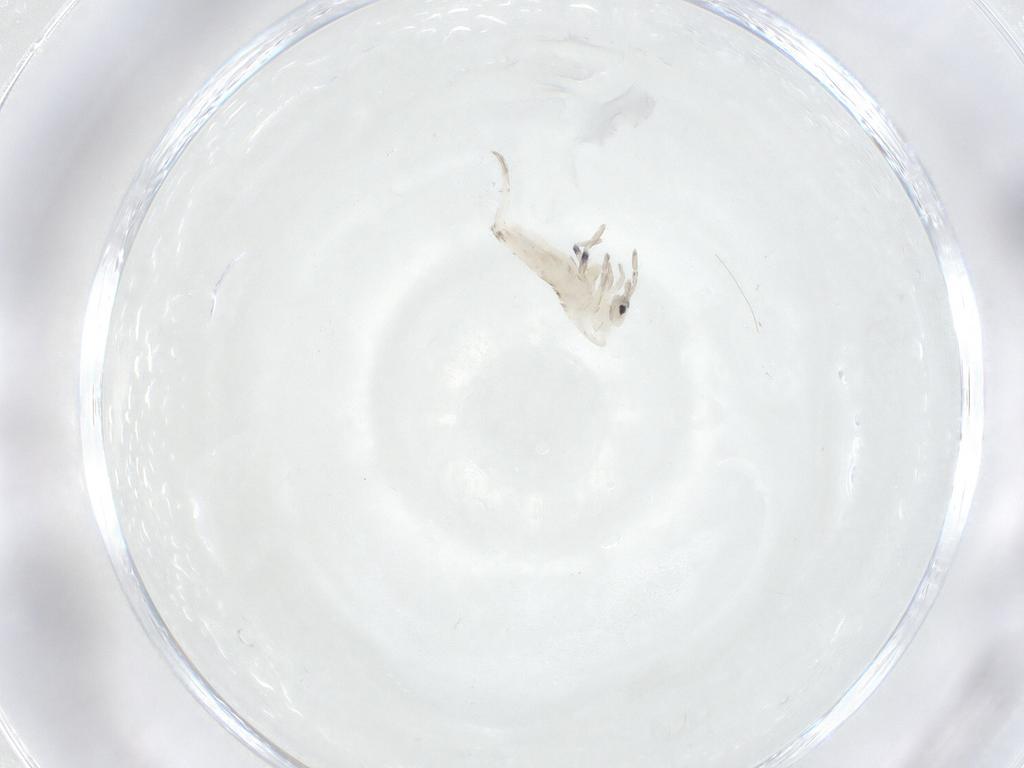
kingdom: Animalia
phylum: Arthropoda
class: Collembola
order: Entomobryomorpha
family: Entomobryidae
